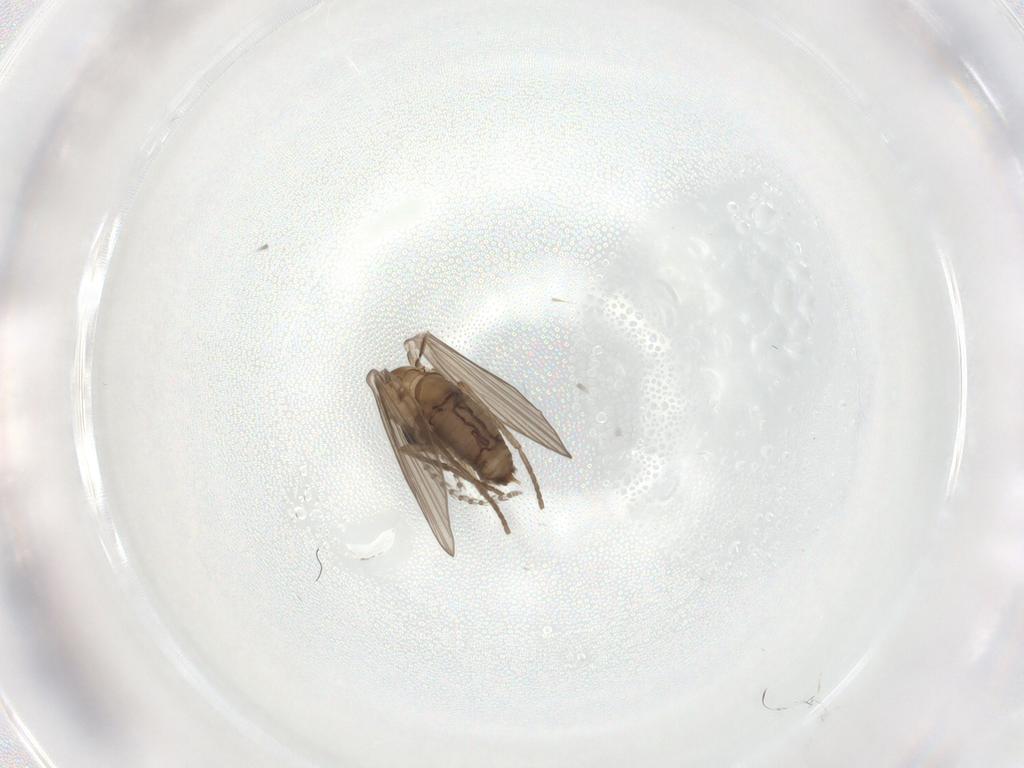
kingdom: Animalia
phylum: Arthropoda
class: Insecta
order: Diptera
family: Psychodidae
